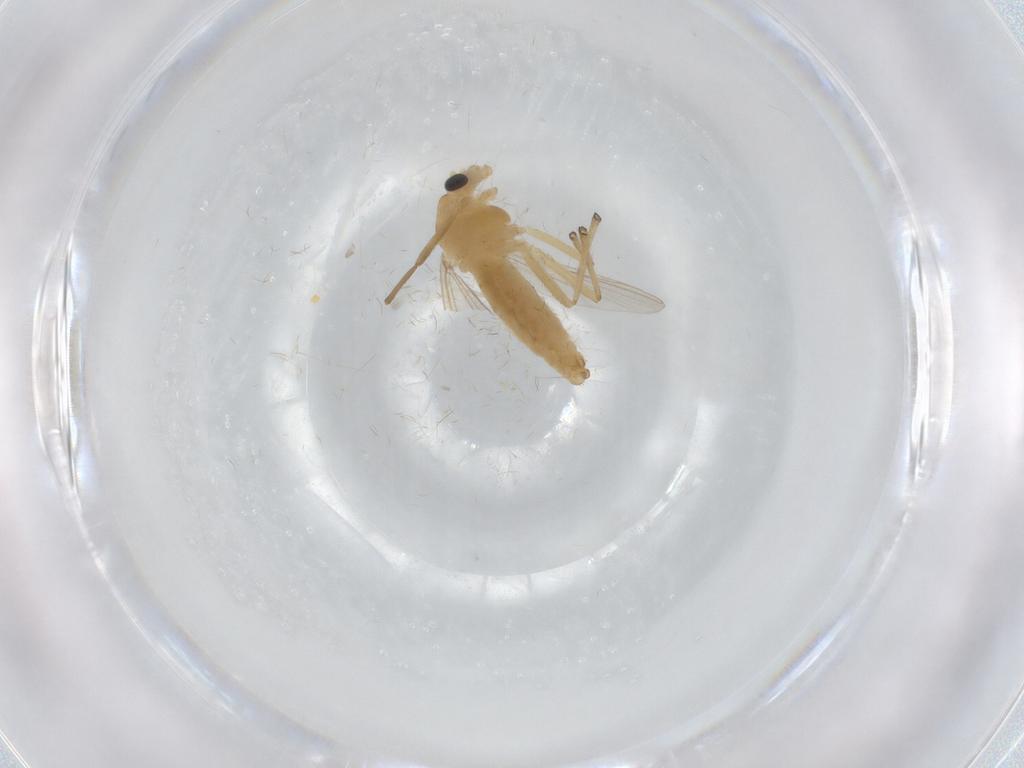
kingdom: Animalia
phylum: Arthropoda
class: Insecta
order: Diptera
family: Chironomidae
